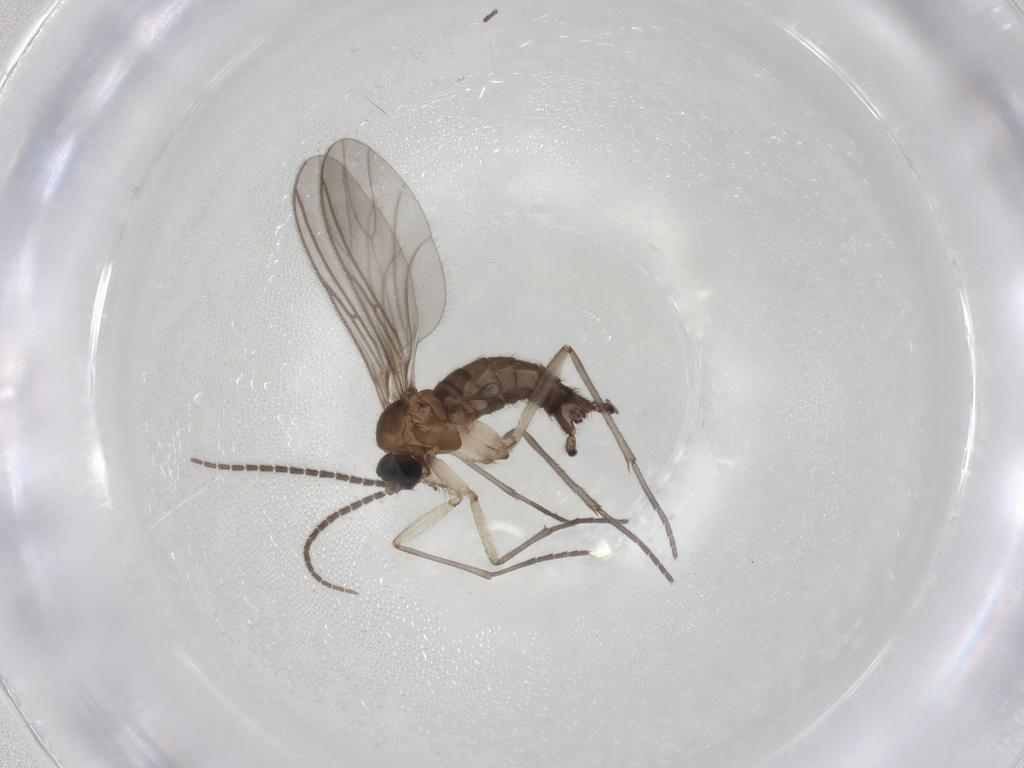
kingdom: Animalia
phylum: Arthropoda
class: Insecta
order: Diptera
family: Sciaridae
